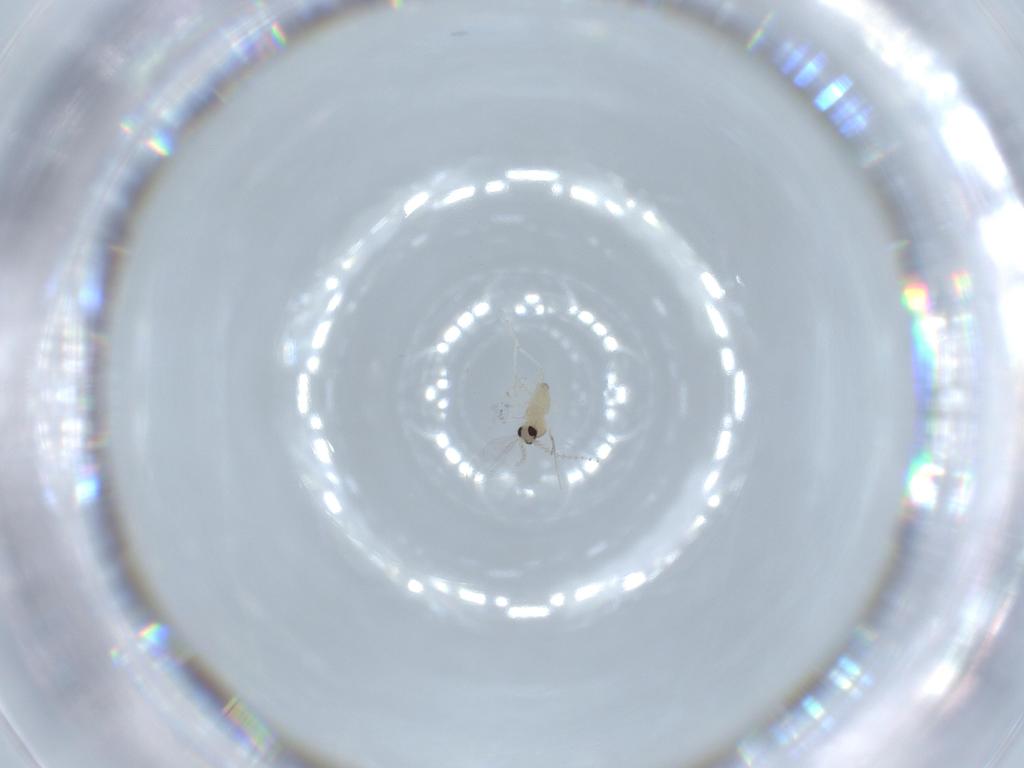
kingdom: Animalia
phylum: Arthropoda
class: Insecta
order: Diptera
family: Cecidomyiidae
